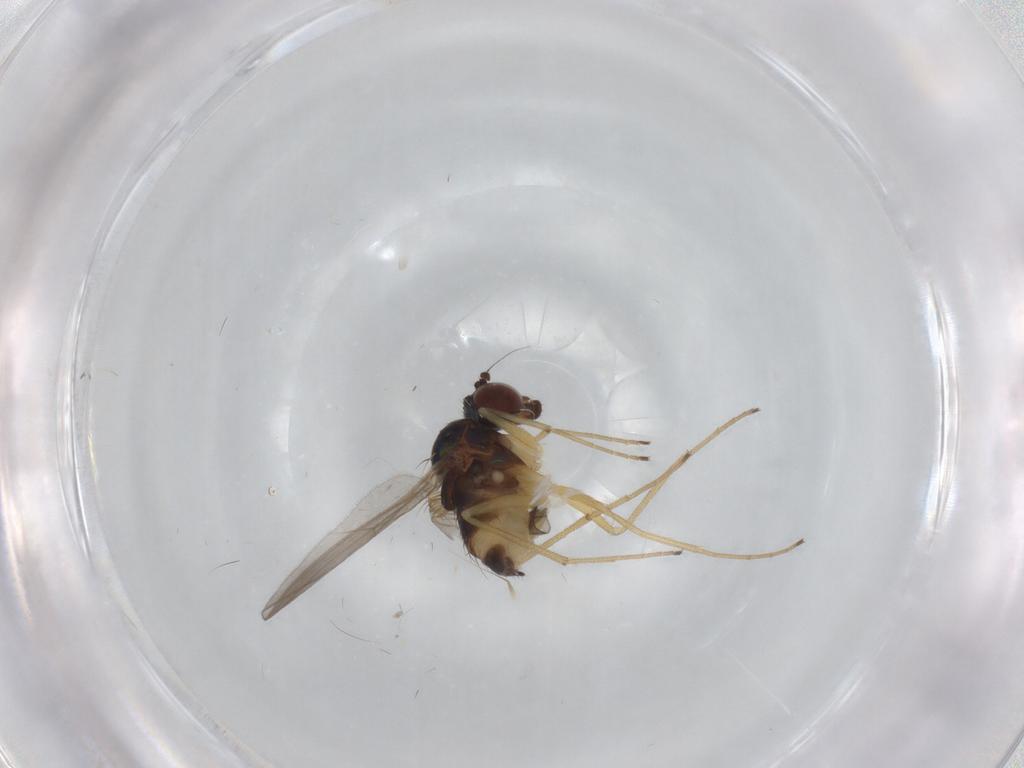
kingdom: Animalia
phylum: Arthropoda
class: Insecta
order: Diptera
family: Dolichopodidae
